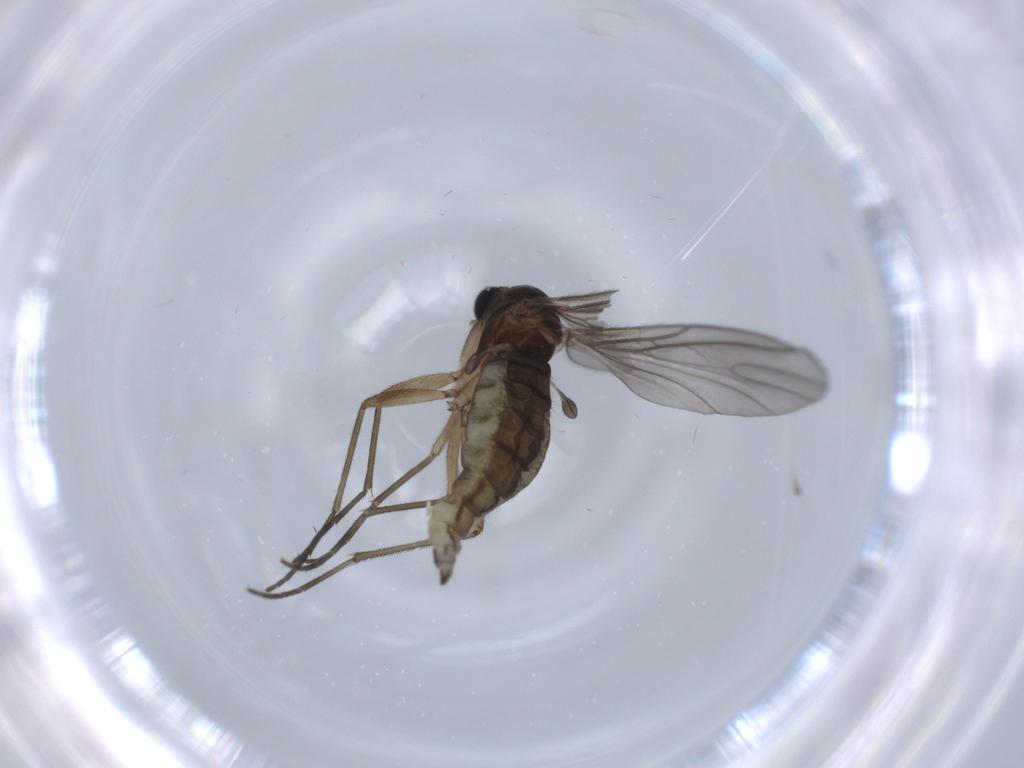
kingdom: Animalia
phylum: Arthropoda
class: Insecta
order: Diptera
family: Sciaridae
